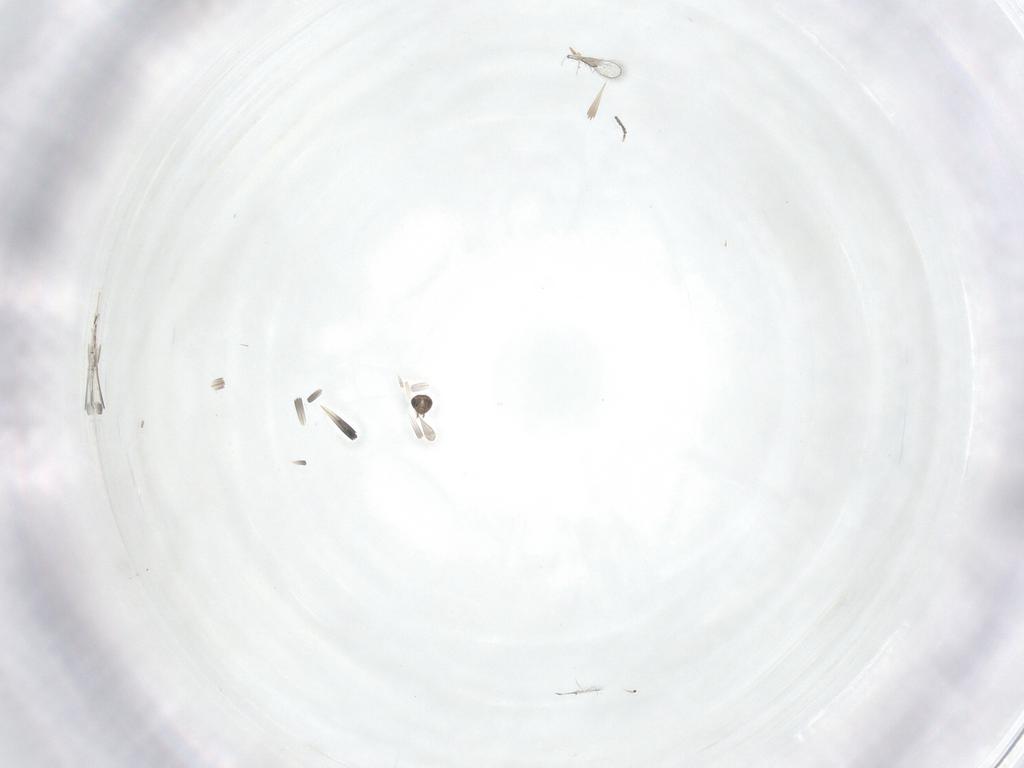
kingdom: Animalia
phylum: Arthropoda
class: Insecta
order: Diptera
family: Cecidomyiidae
